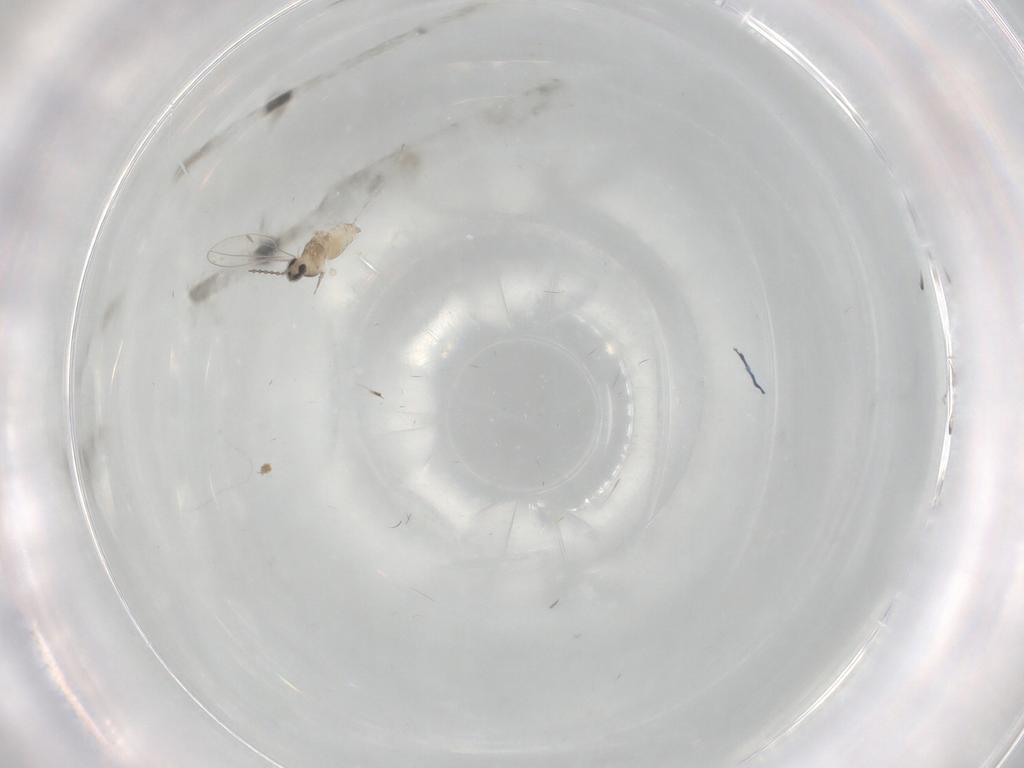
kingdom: Animalia
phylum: Arthropoda
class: Insecta
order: Diptera
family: Cecidomyiidae
